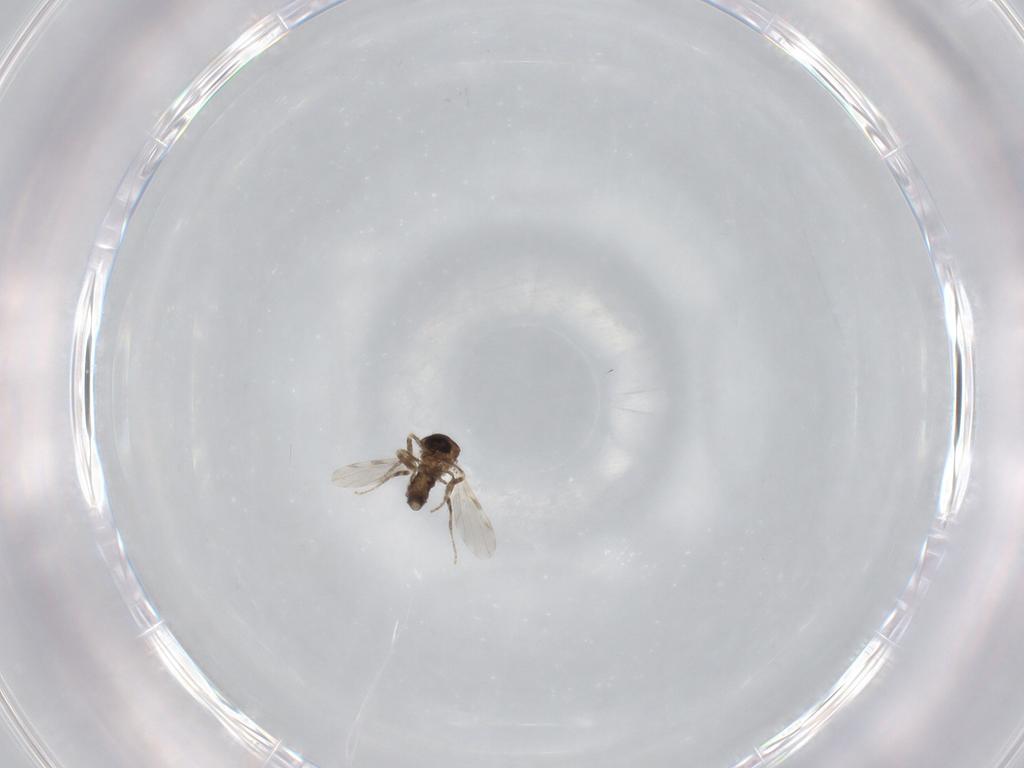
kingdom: Animalia
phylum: Arthropoda
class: Insecta
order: Diptera
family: Ceratopogonidae
